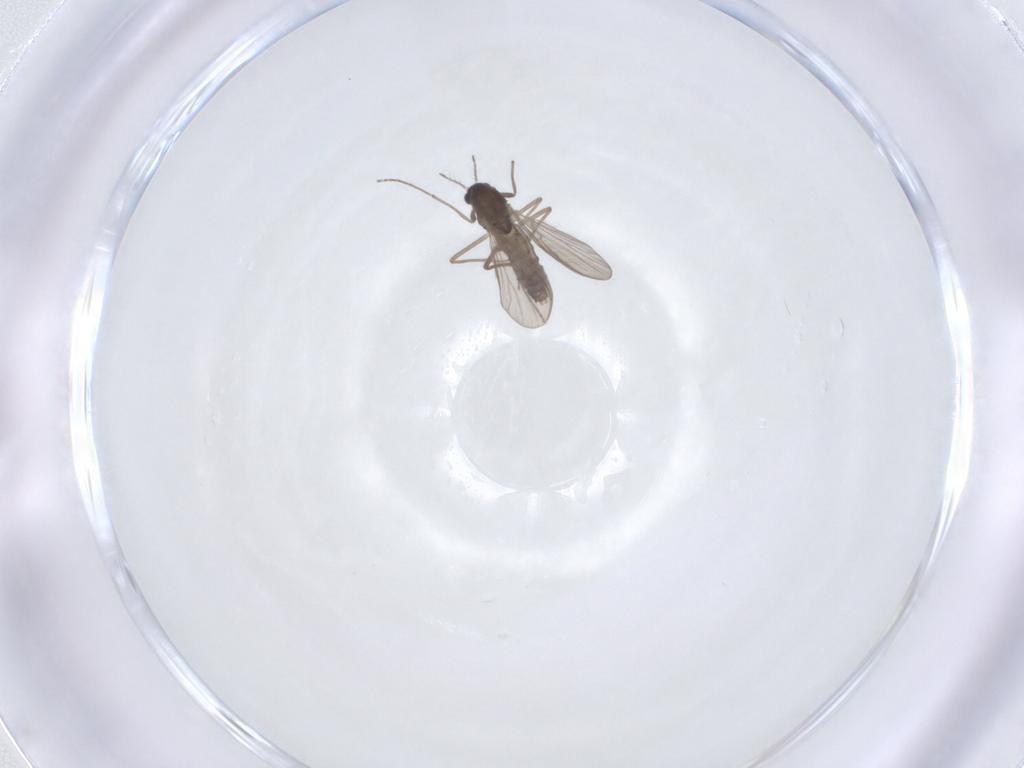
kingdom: Animalia
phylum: Arthropoda
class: Insecta
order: Diptera
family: Chironomidae
